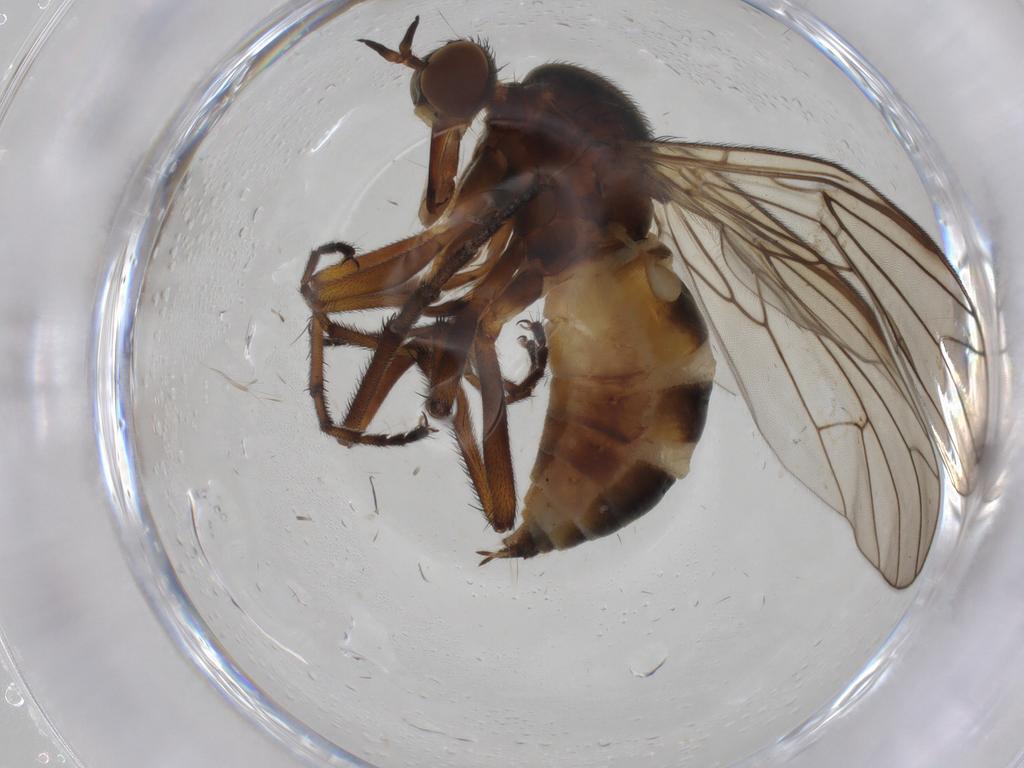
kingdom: Animalia
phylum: Arthropoda
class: Insecta
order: Diptera
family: Empididae
